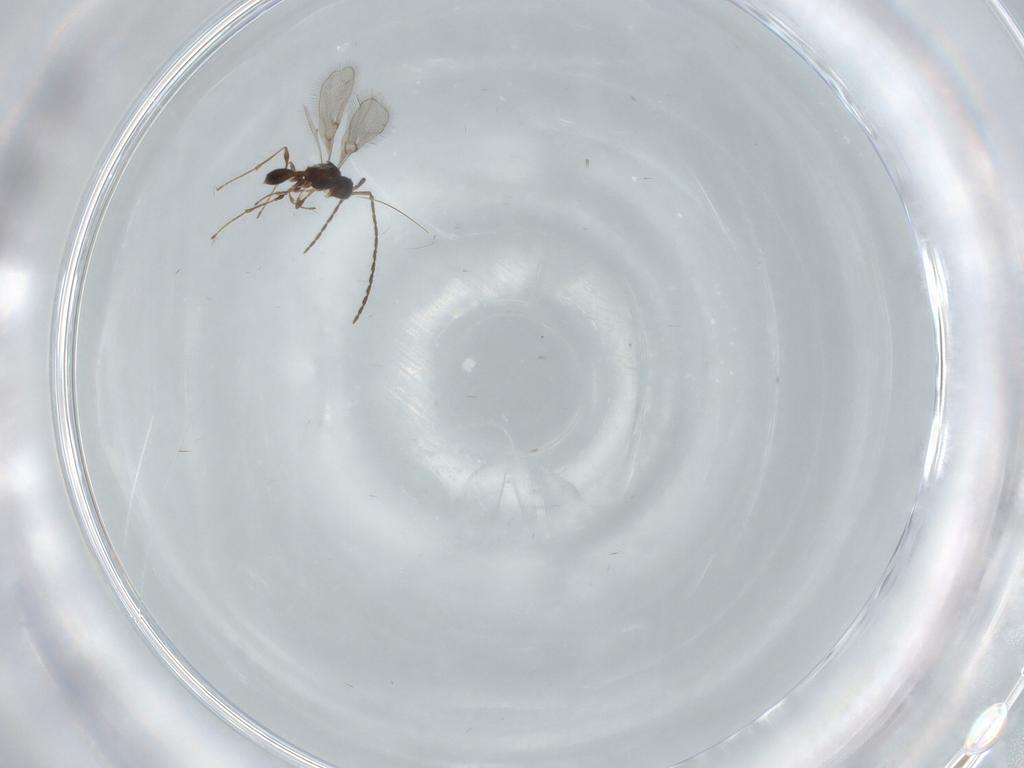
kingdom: Animalia
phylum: Arthropoda
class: Insecta
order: Hymenoptera
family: Diapriidae
